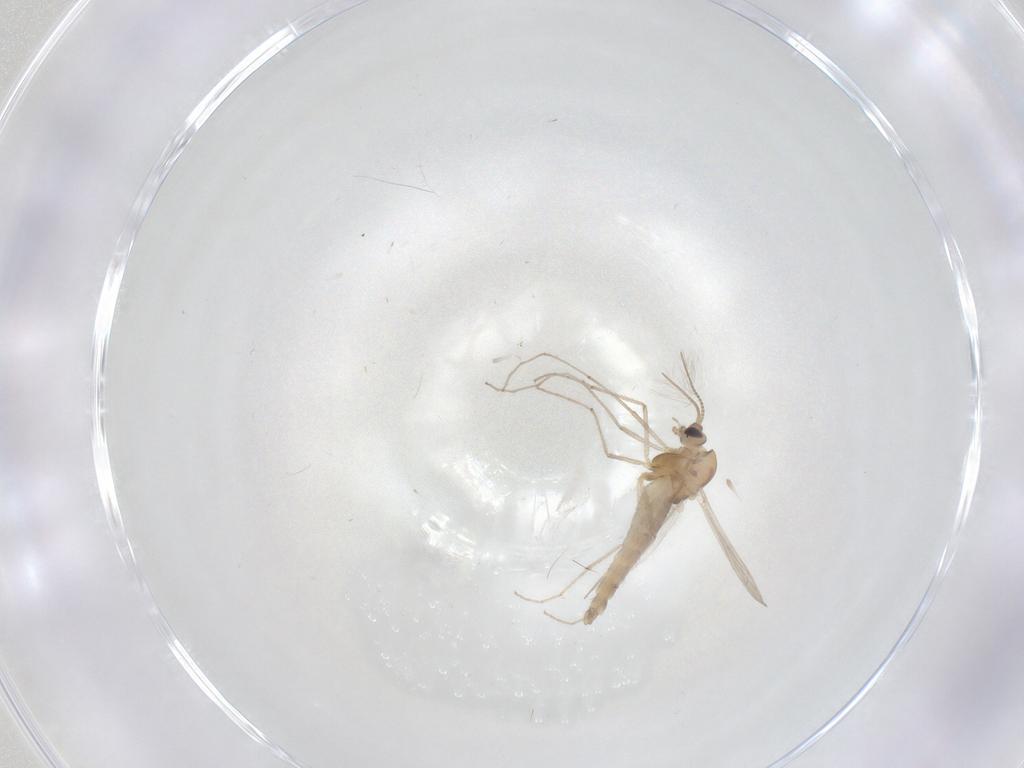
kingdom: Animalia
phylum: Arthropoda
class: Insecta
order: Diptera
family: Chironomidae
